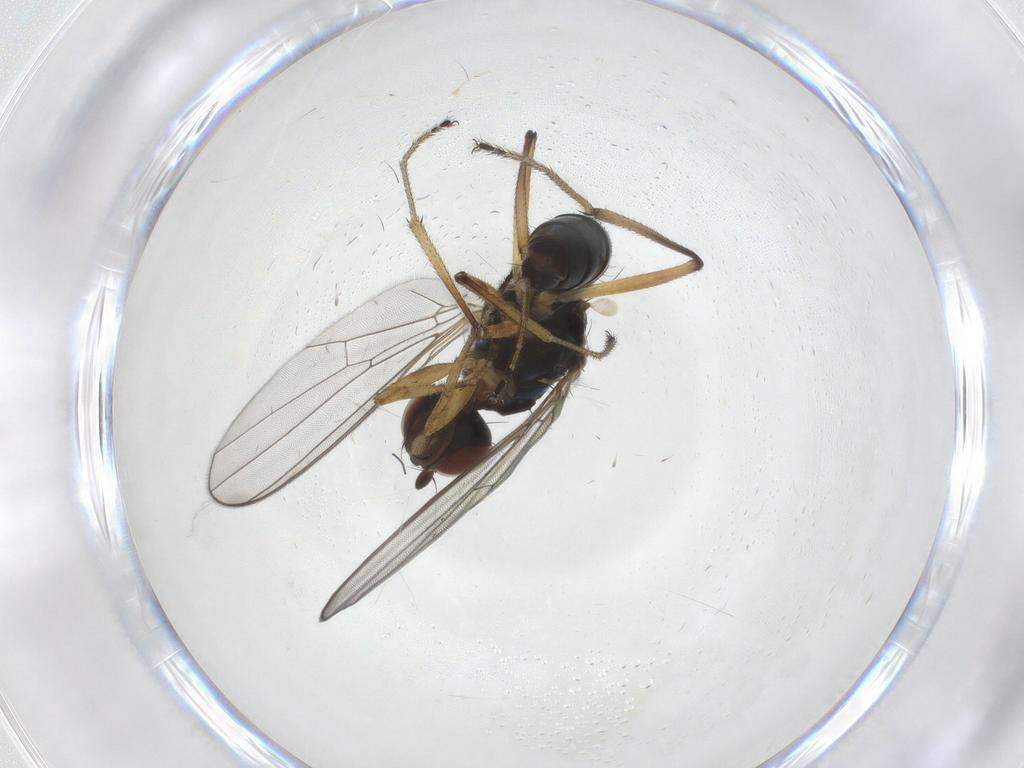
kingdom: Animalia
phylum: Arthropoda
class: Insecta
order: Diptera
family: Sepsidae
